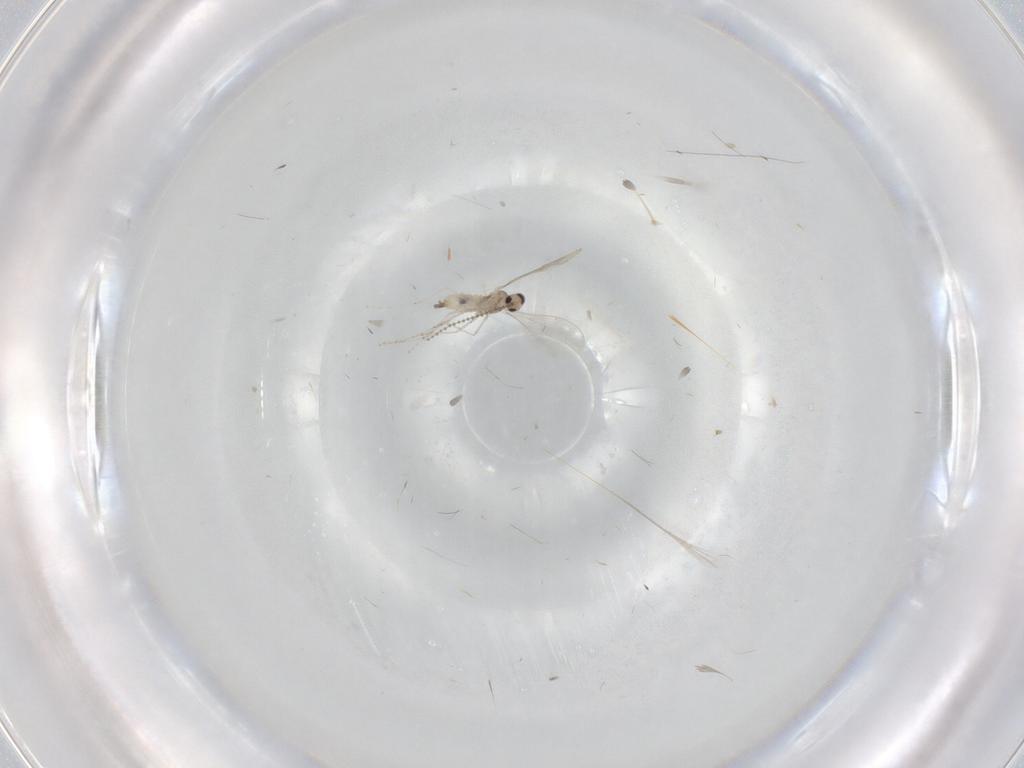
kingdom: Animalia
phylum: Arthropoda
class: Insecta
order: Diptera
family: Cecidomyiidae
